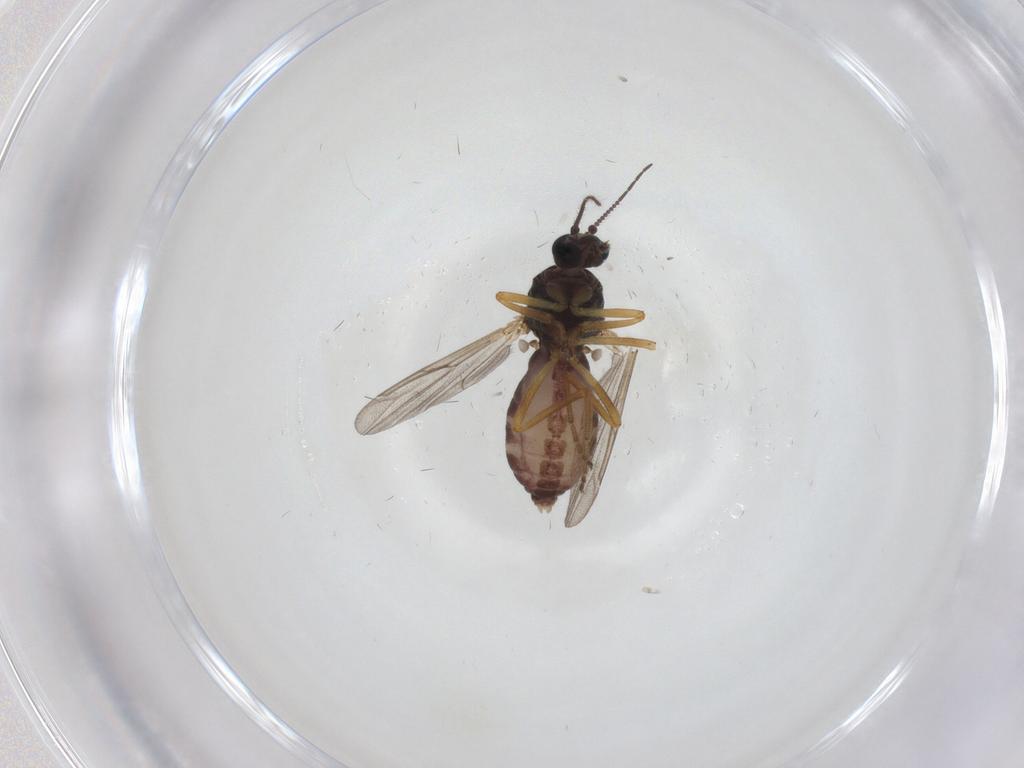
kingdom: Animalia
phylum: Arthropoda
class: Insecta
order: Diptera
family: Ceratopogonidae
